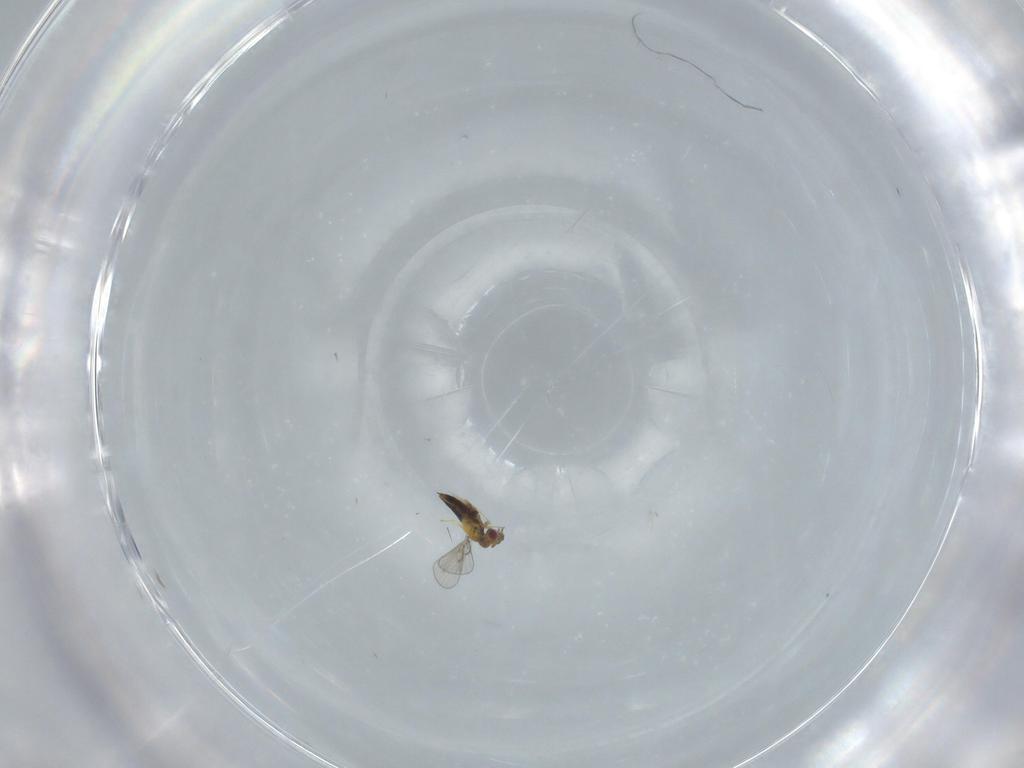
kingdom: Animalia
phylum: Arthropoda
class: Insecta
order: Hymenoptera
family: Trichogrammatidae
